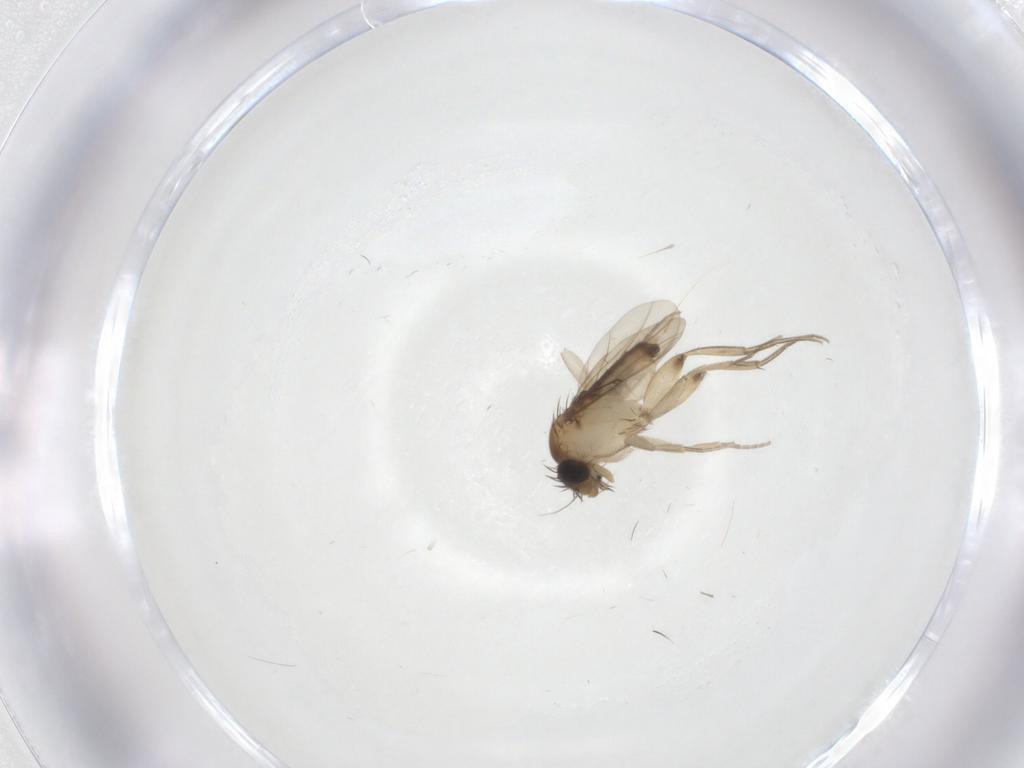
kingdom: Animalia
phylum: Arthropoda
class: Insecta
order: Diptera
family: Phoridae
